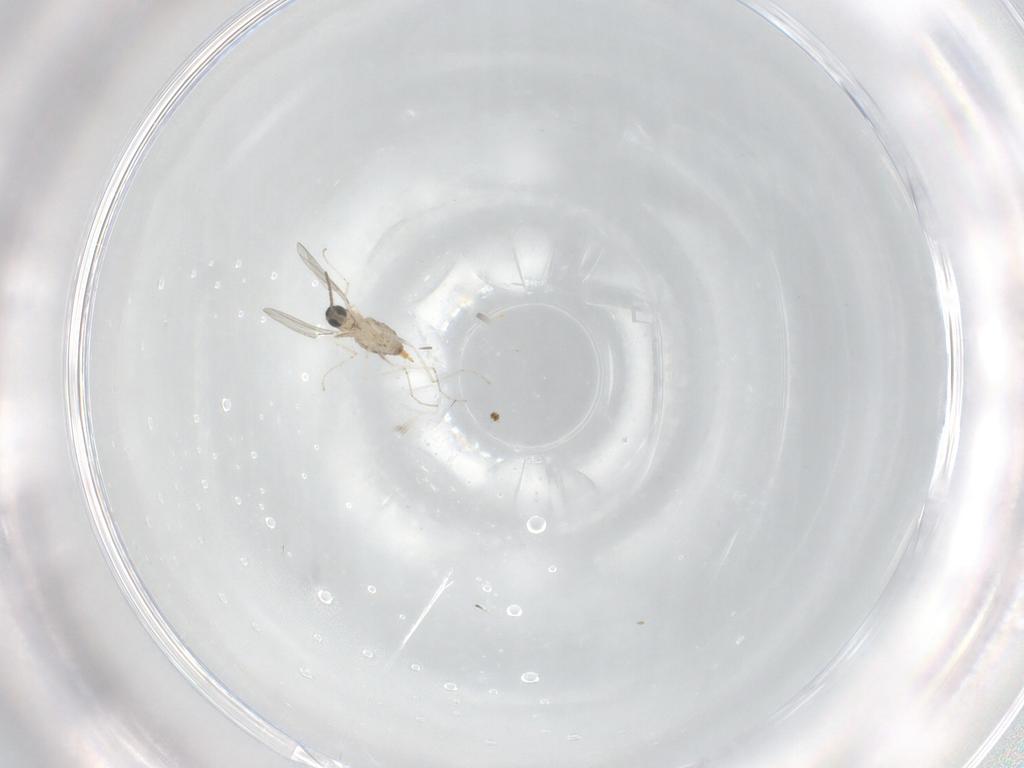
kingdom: Animalia
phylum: Arthropoda
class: Insecta
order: Diptera
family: Cecidomyiidae
